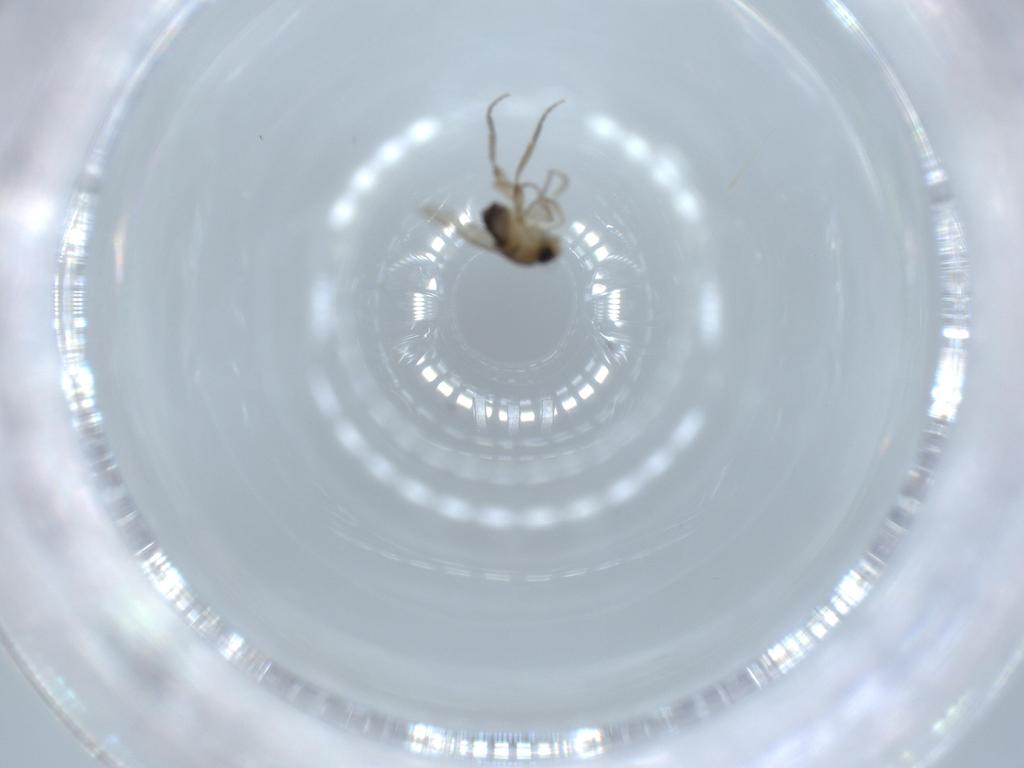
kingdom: Animalia
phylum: Arthropoda
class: Insecta
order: Diptera
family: Phoridae
